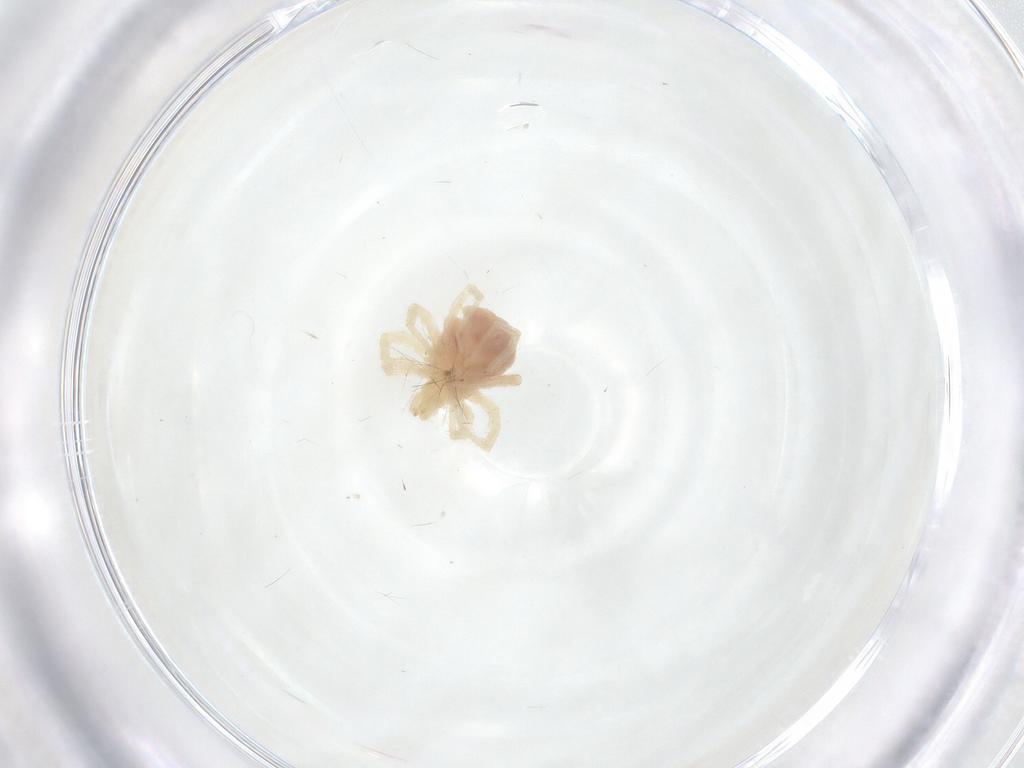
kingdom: Animalia
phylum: Arthropoda
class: Arachnida
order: Trombidiformes
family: Anystidae
